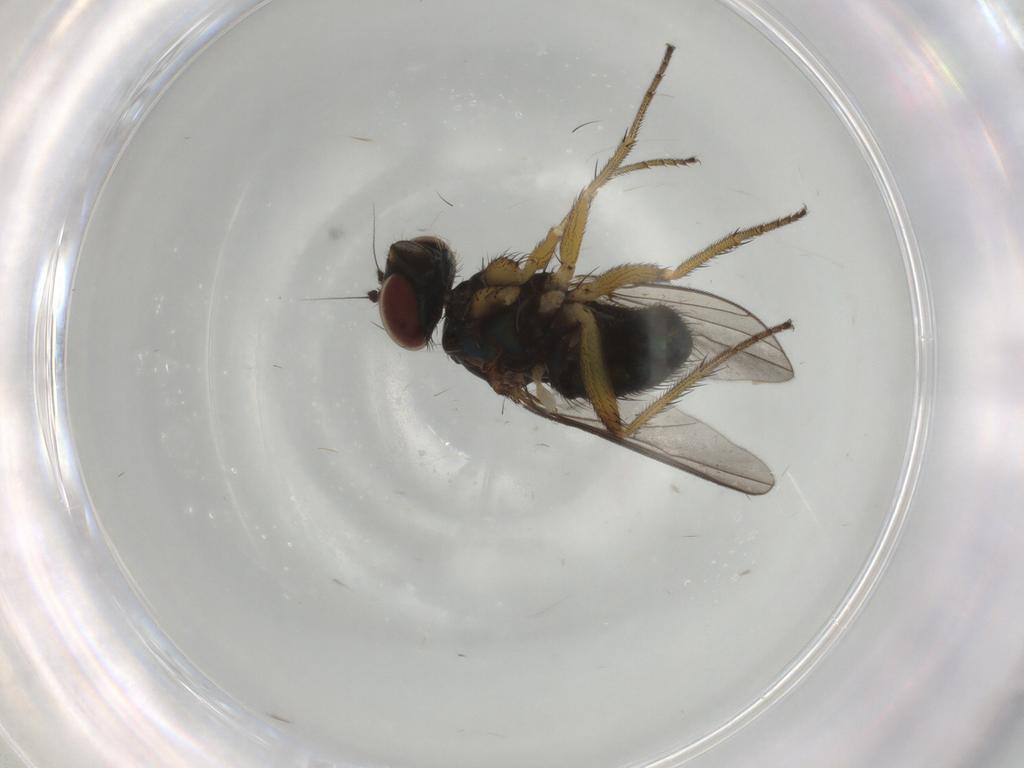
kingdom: Animalia
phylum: Arthropoda
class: Insecta
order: Diptera
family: Dolichopodidae
